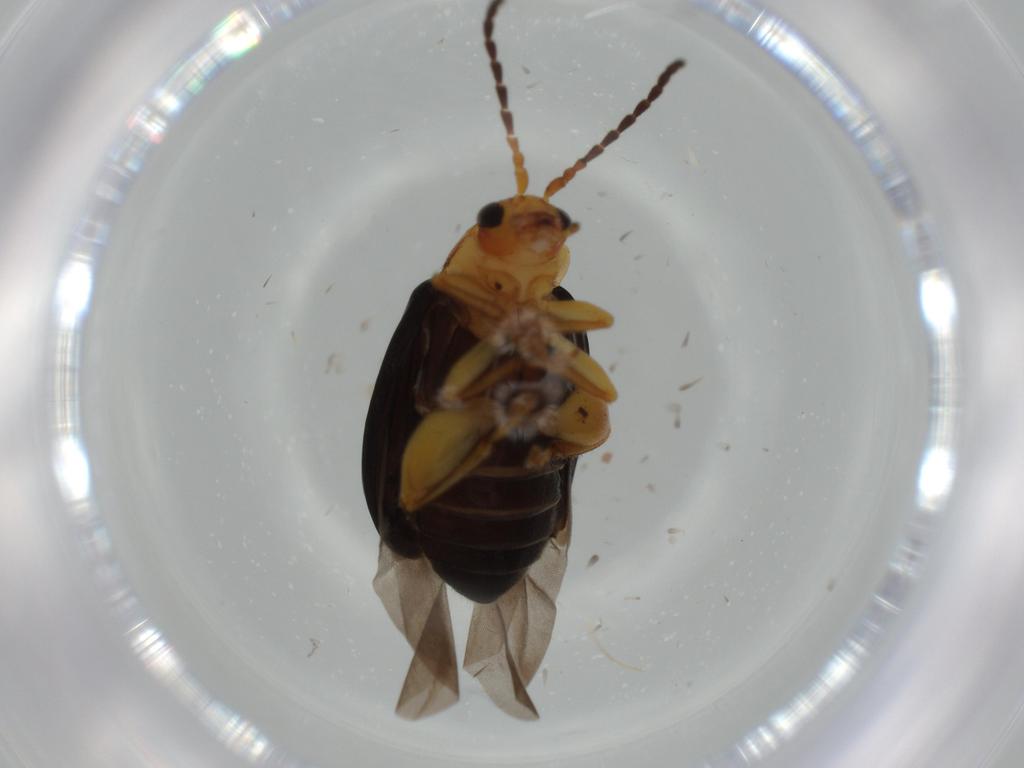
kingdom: Animalia
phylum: Arthropoda
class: Insecta
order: Coleoptera
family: Chrysomelidae
